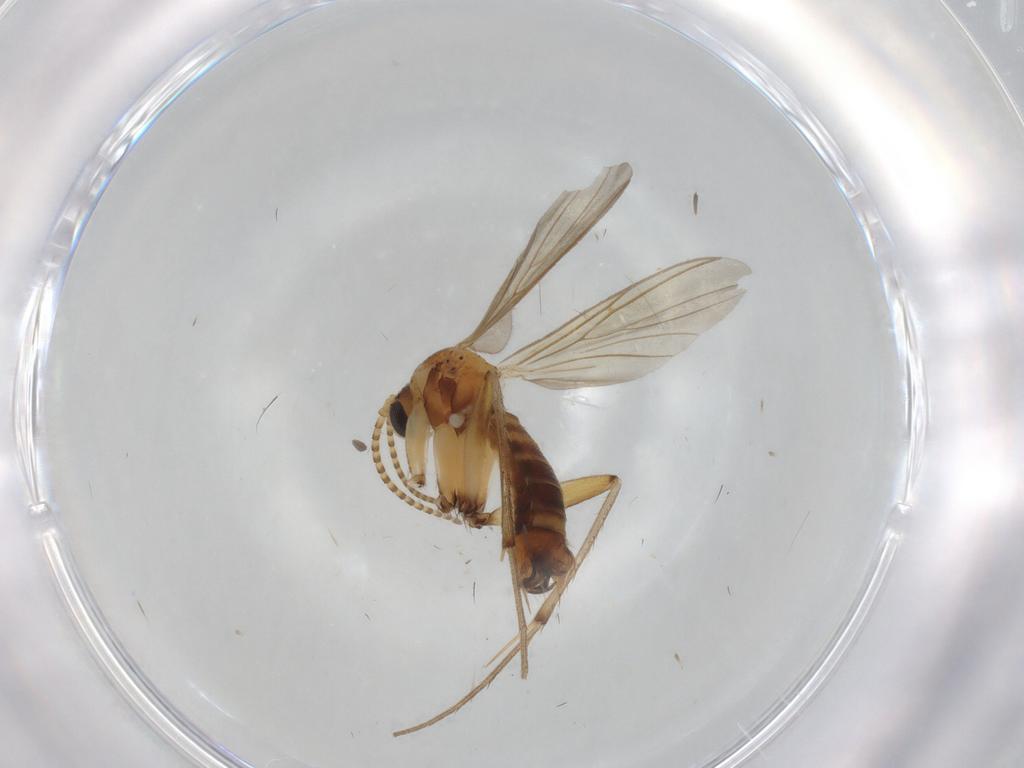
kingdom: Animalia
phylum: Arthropoda
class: Insecta
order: Diptera
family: Mycetophilidae
